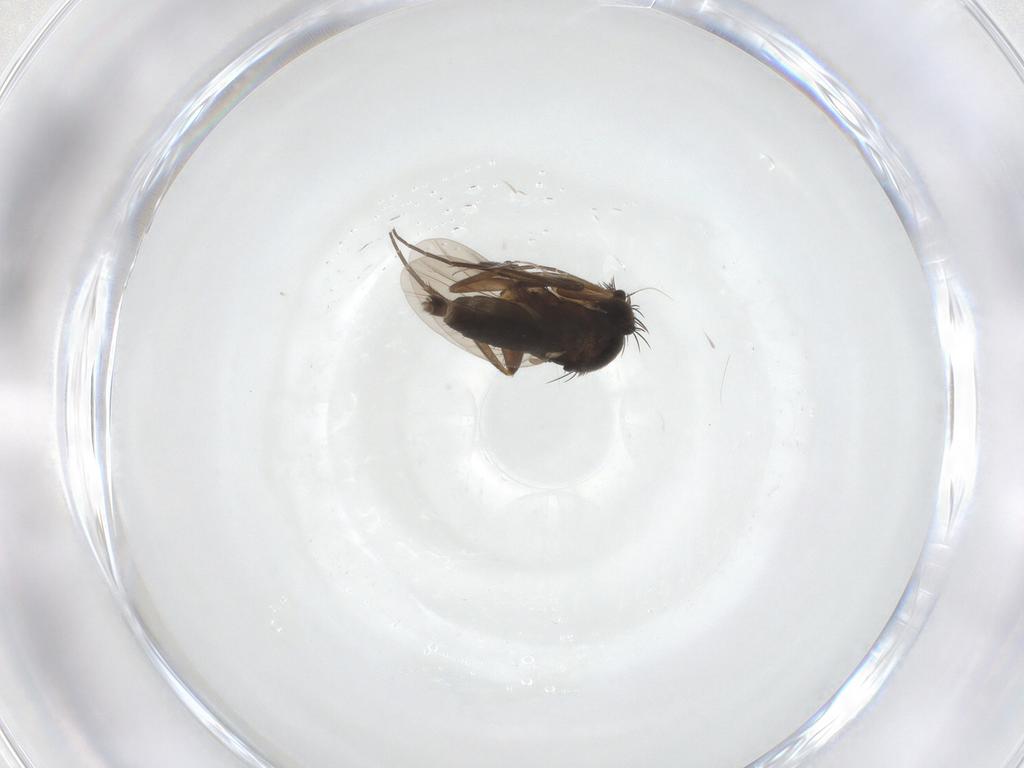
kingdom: Animalia
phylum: Arthropoda
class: Insecta
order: Diptera
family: Phoridae
